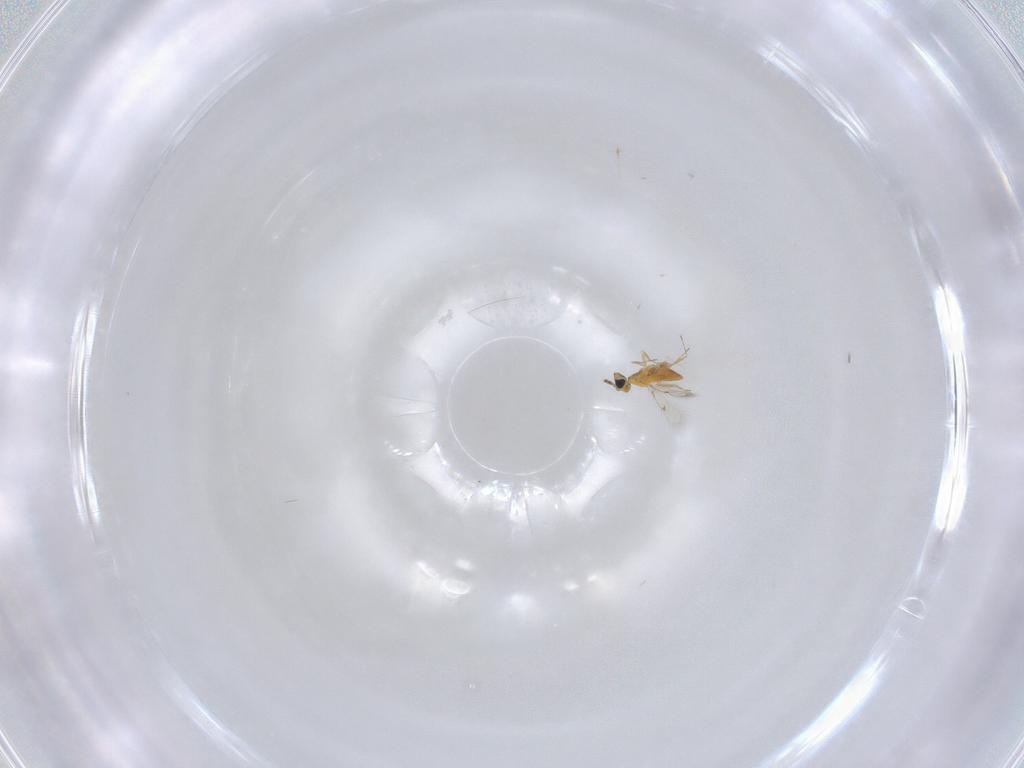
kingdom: Animalia
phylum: Arthropoda
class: Insecta
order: Hymenoptera
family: Trichogrammatidae
